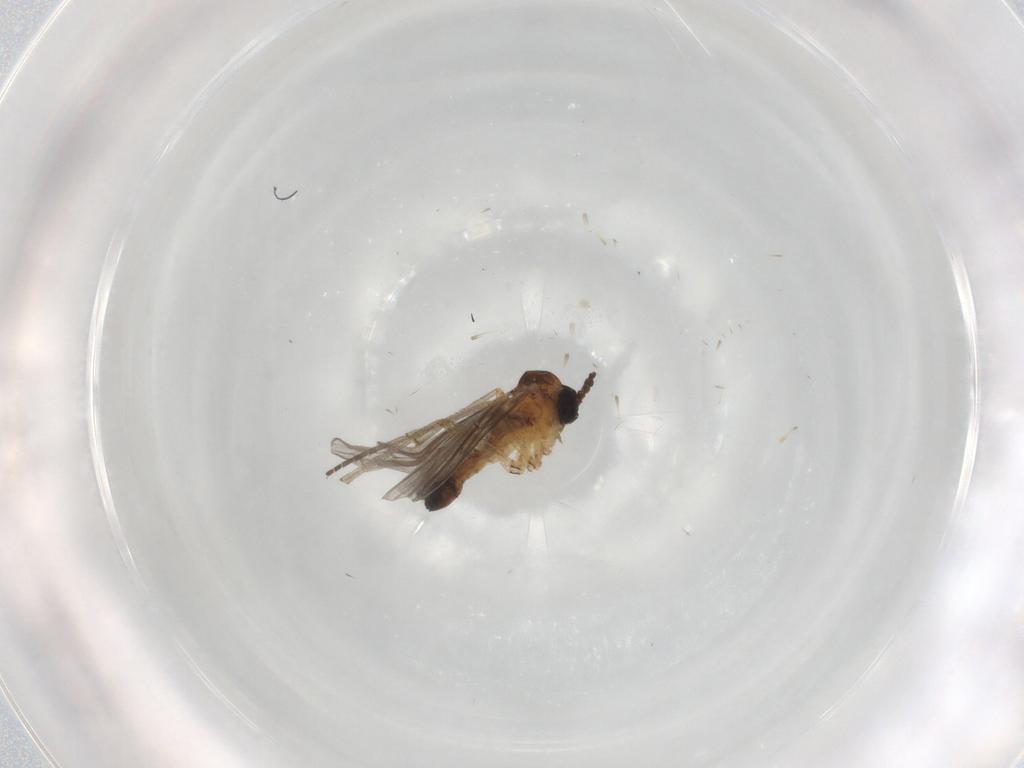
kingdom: Animalia
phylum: Arthropoda
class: Insecta
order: Diptera
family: Sciaridae
